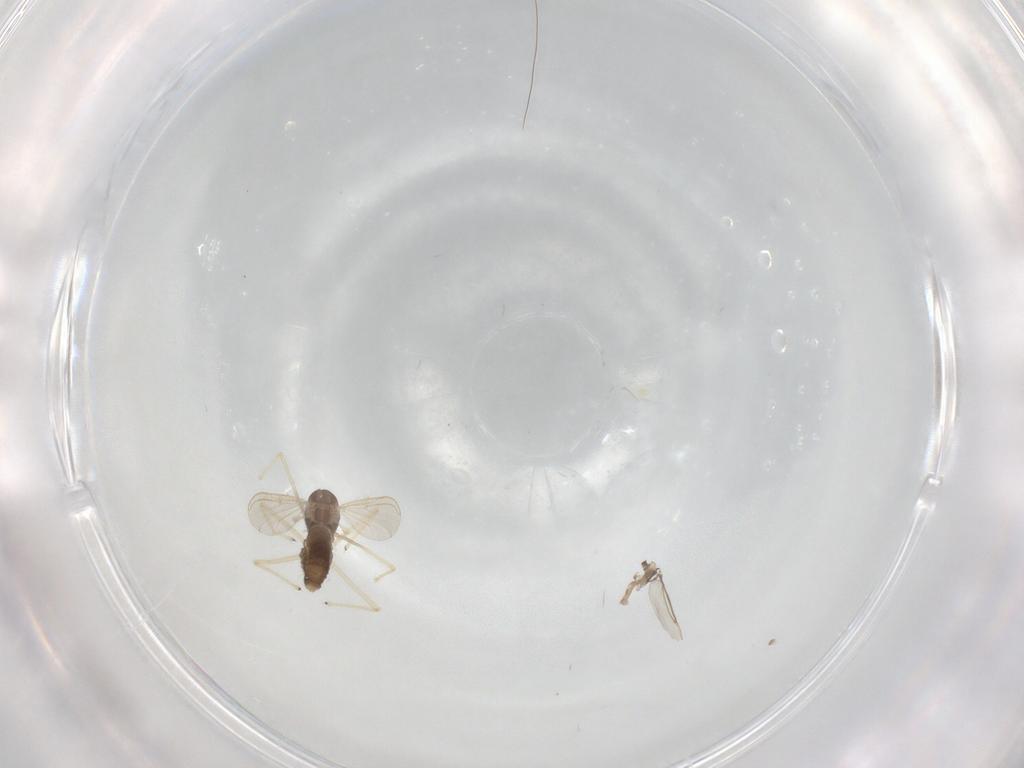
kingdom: Animalia
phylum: Arthropoda
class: Insecta
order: Diptera
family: Chironomidae
